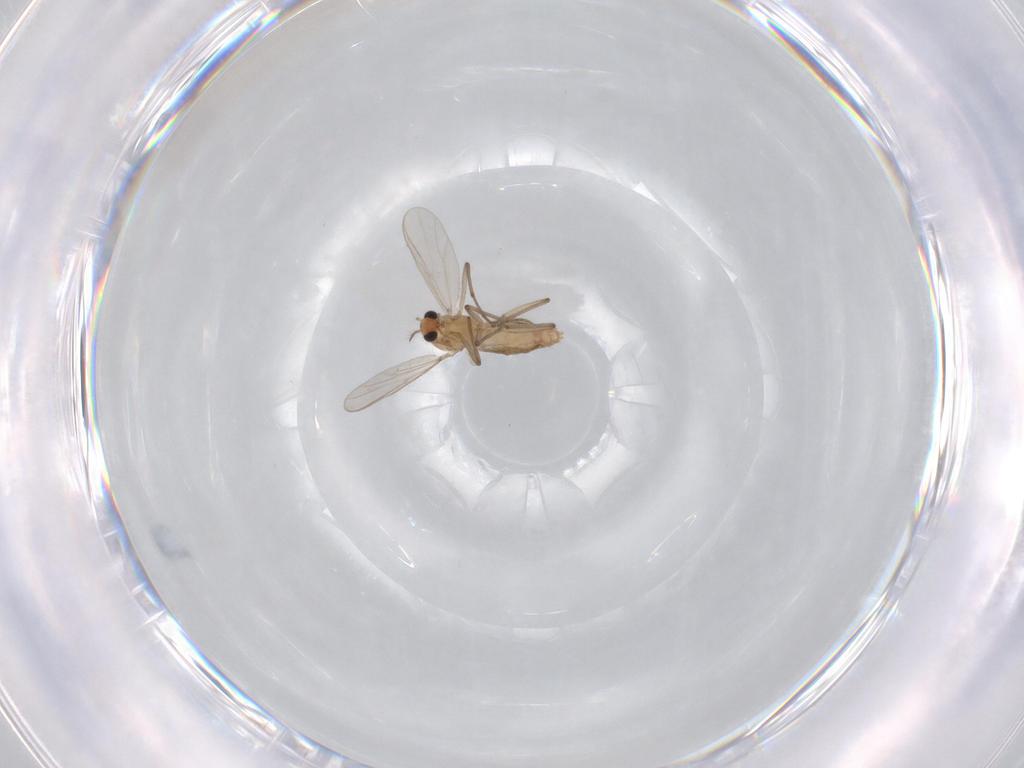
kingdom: Animalia
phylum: Arthropoda
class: Insecta
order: Diptera
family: Chironomidae
